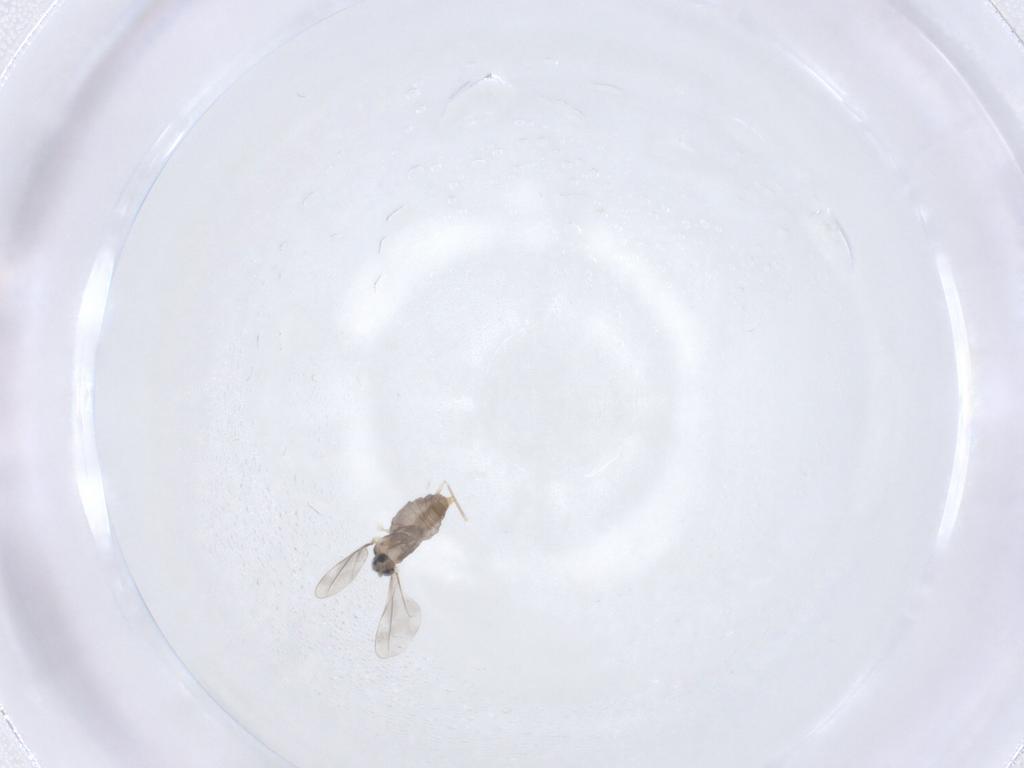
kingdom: Animalia
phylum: Arthropoda
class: Insecta
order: Diptera
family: Cecidomyiidae
